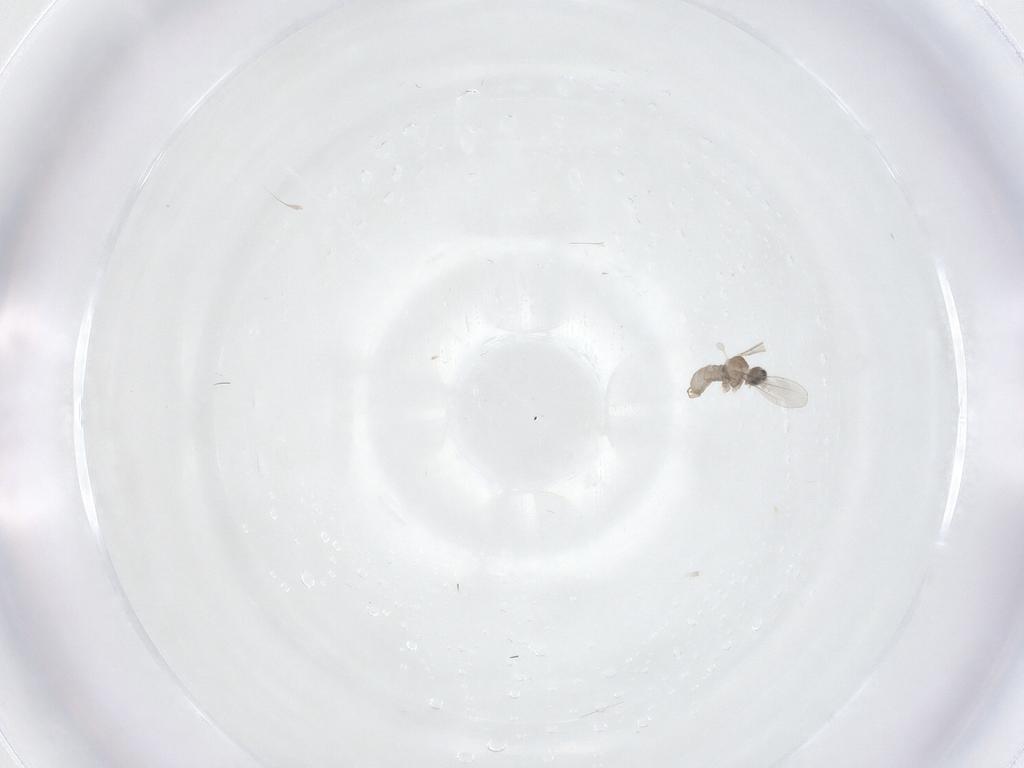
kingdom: Animalia
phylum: Arthropoda
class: Insecta
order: Diptera
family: Cecidomyiidae
